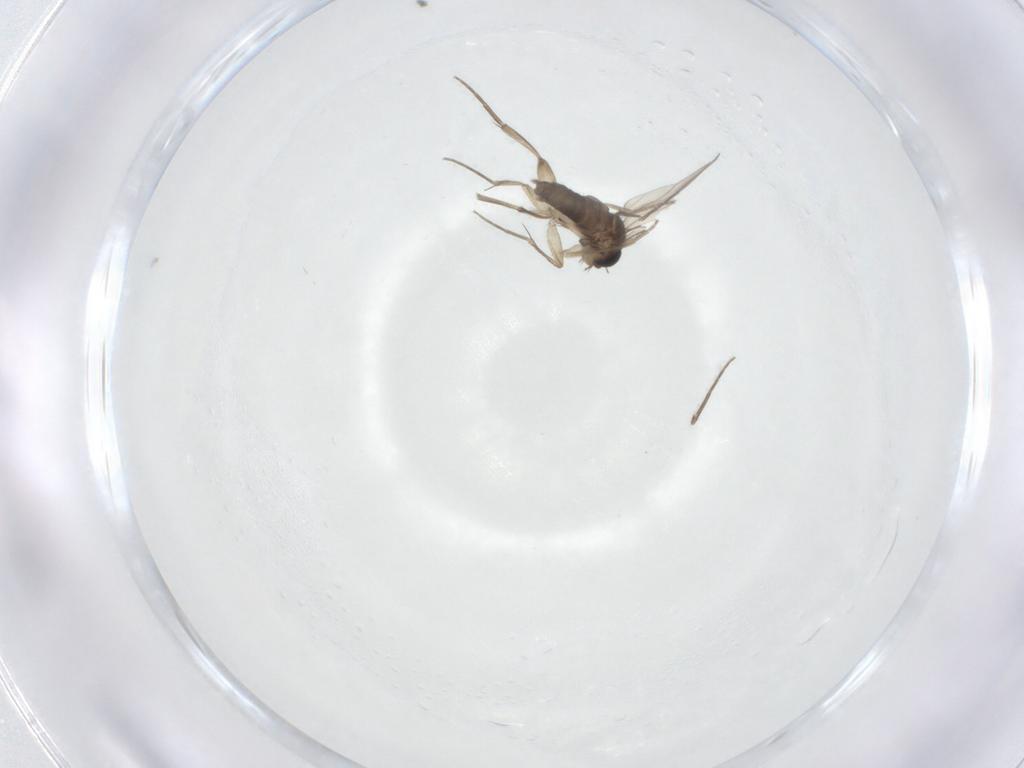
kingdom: Animalia
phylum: Arthropoda
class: Insecta
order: Diptera
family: Phoridae
